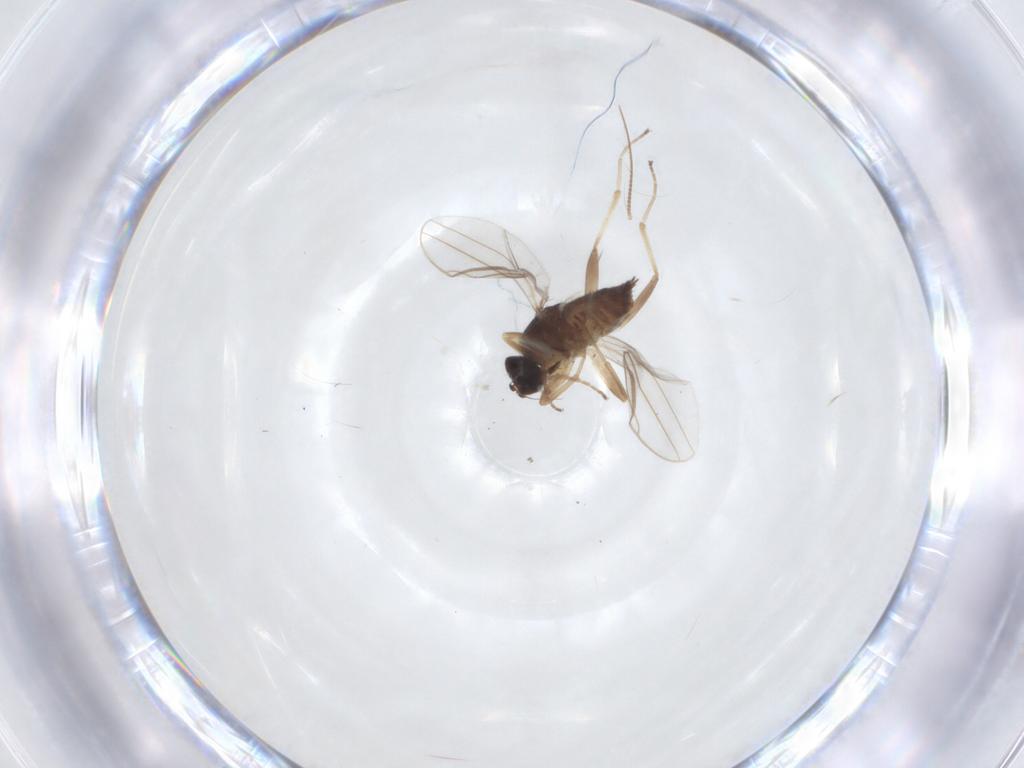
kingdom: Animalia
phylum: Arthropoda
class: Insecta
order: Diptera
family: Hybotidae
